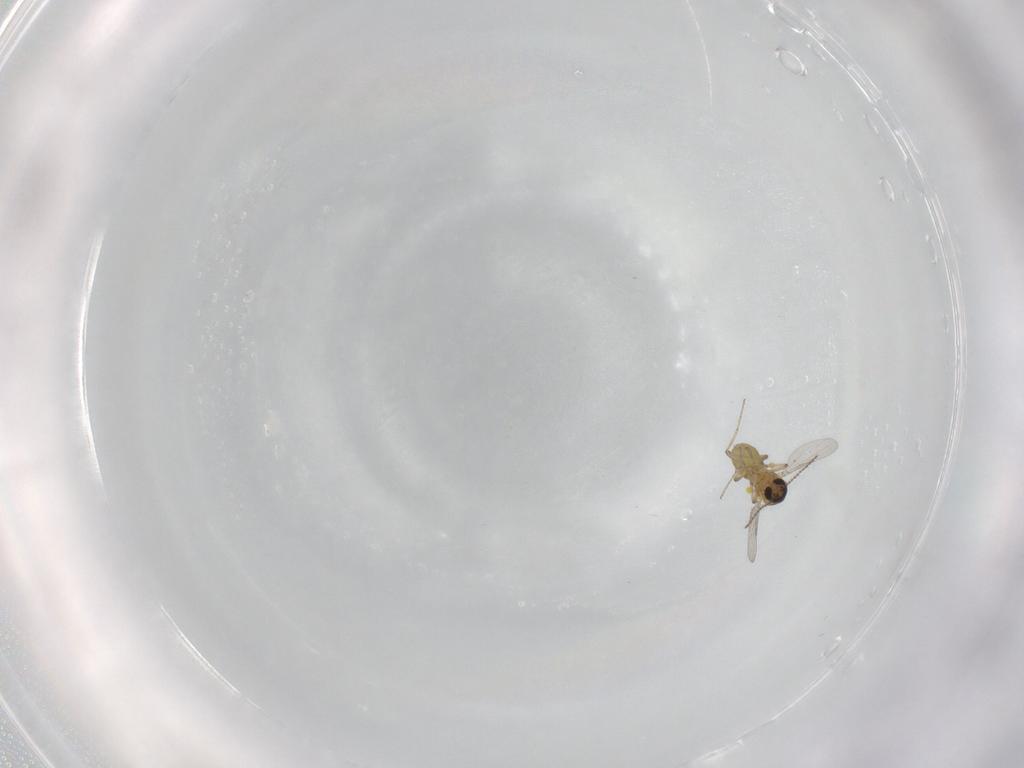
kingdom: Animalia
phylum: Arthropoda
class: Insecta
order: Diptera
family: Ceratopogonidae
